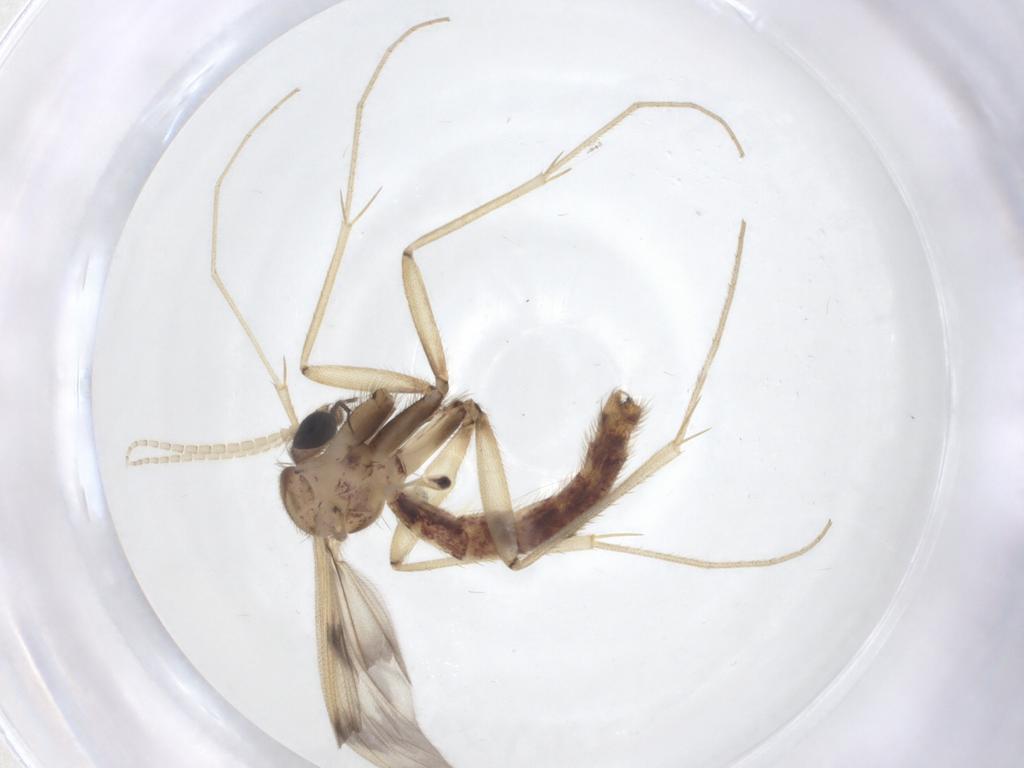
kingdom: Animalia
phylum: Arthropoda
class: Insecta
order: Diptera
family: Mycetophilidae
